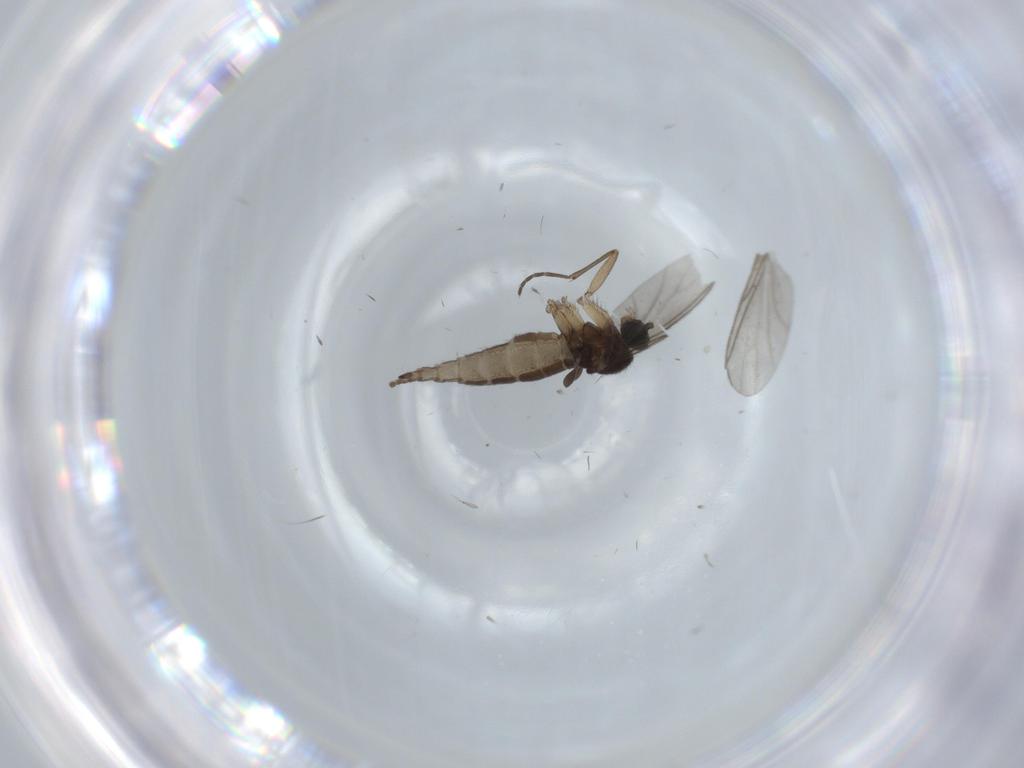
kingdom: Animalia
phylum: Arthropoda
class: Insecta
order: Diptera
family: Sciaridae
